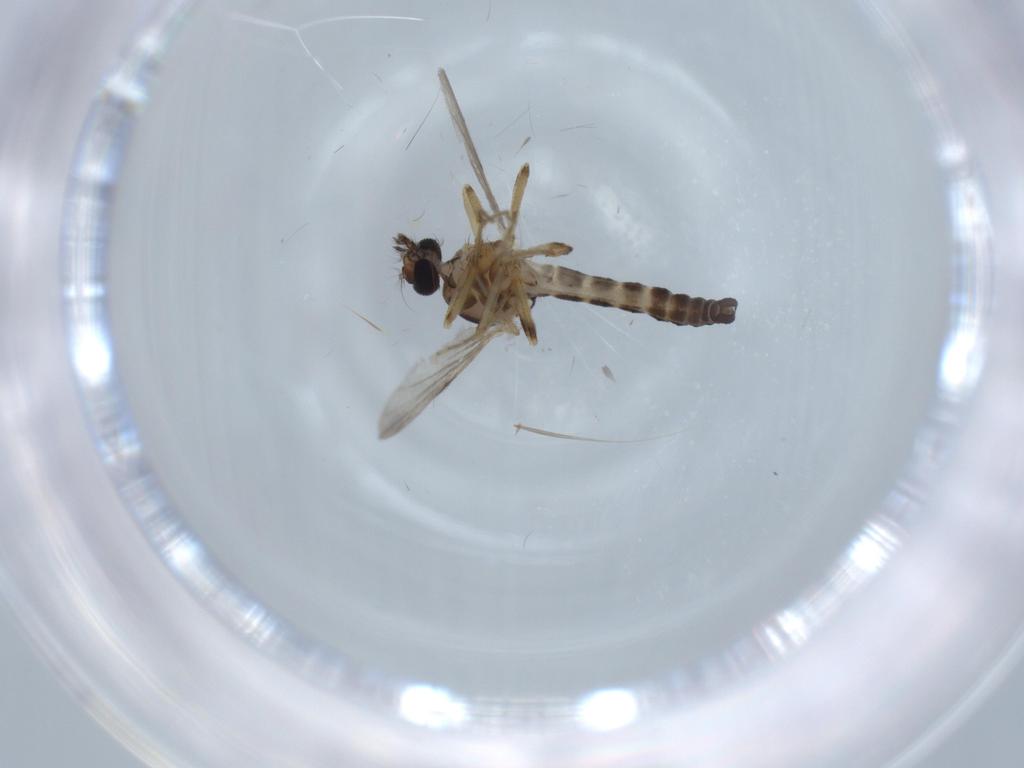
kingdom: Animalia
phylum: Arthropoda
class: Insecta
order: Diptera
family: Ceratopogonidae
